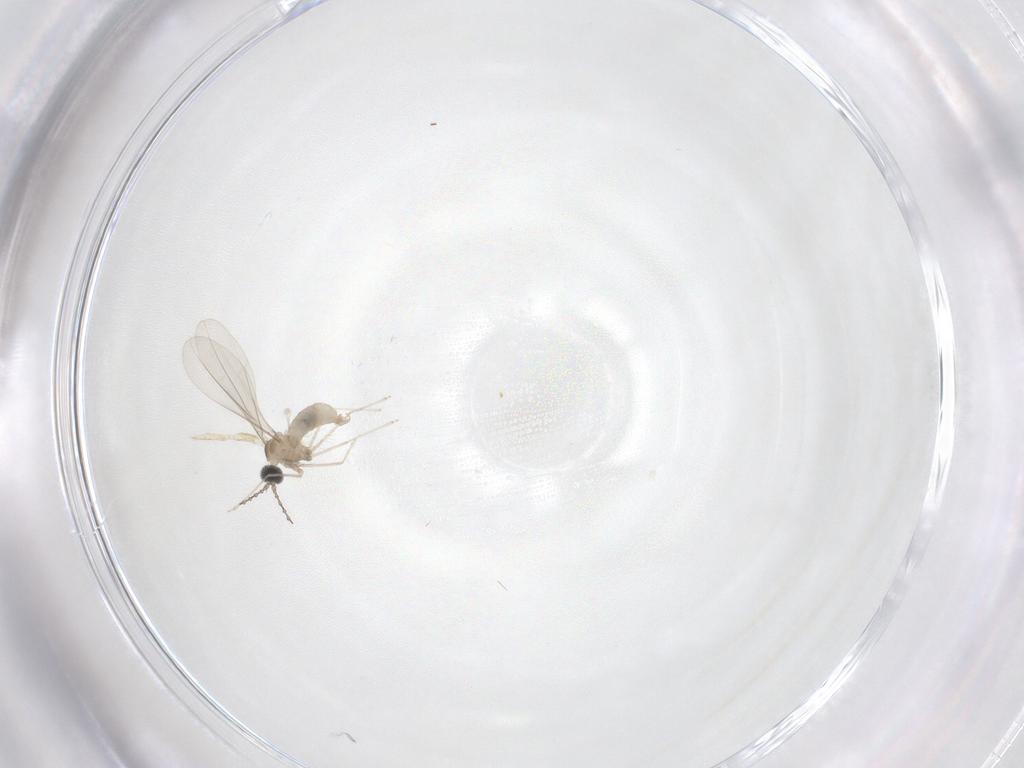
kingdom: Animalia
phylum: Arthropoda
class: Insecta
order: Diptera
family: Cecidomyiidae
